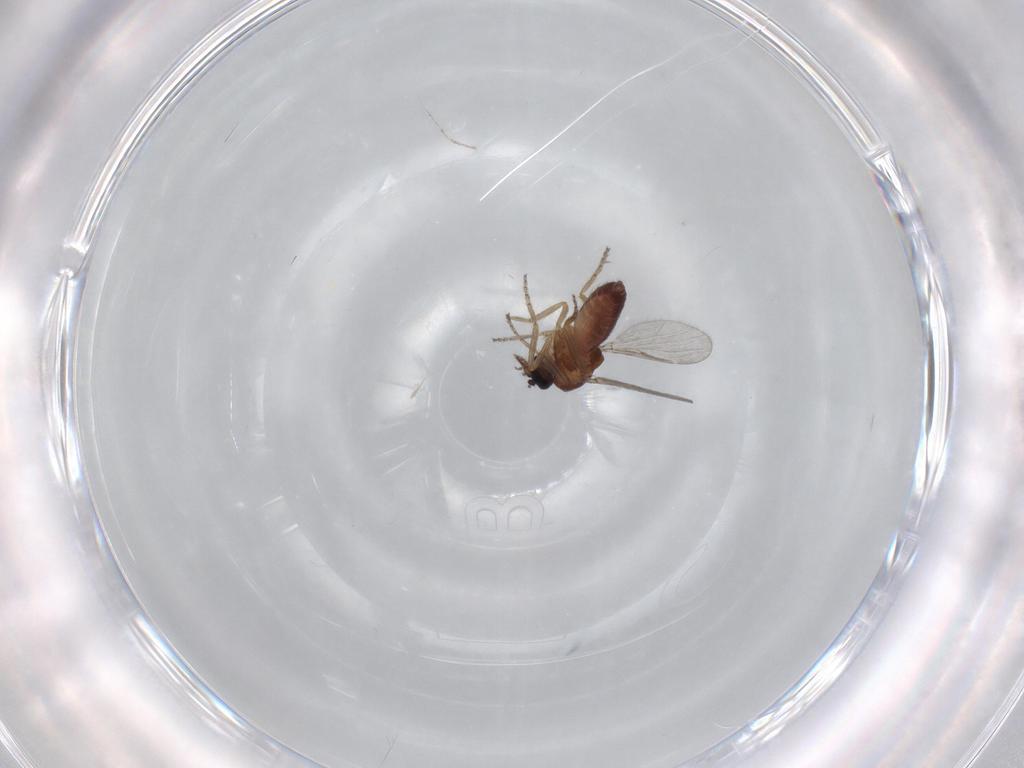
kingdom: Animalia
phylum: Arthropoda
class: Insecta
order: Diptera
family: Ceratopogonidae
